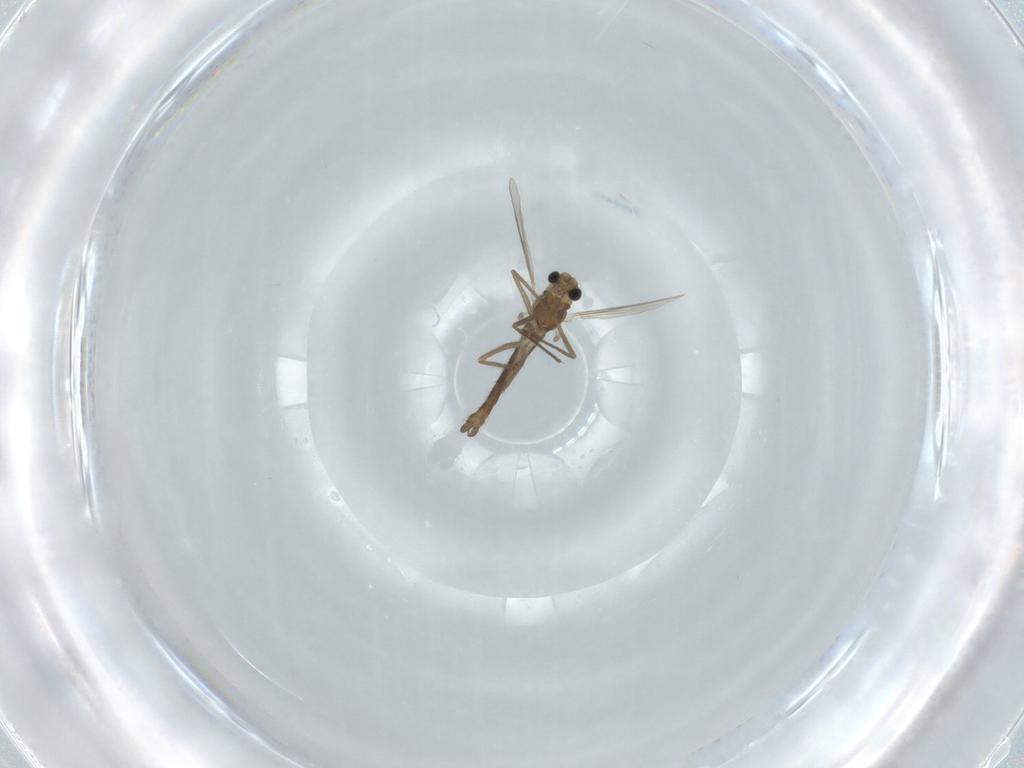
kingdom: Animalia
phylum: Arthropoda
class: Insecta
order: Diptera
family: Chironomidae
